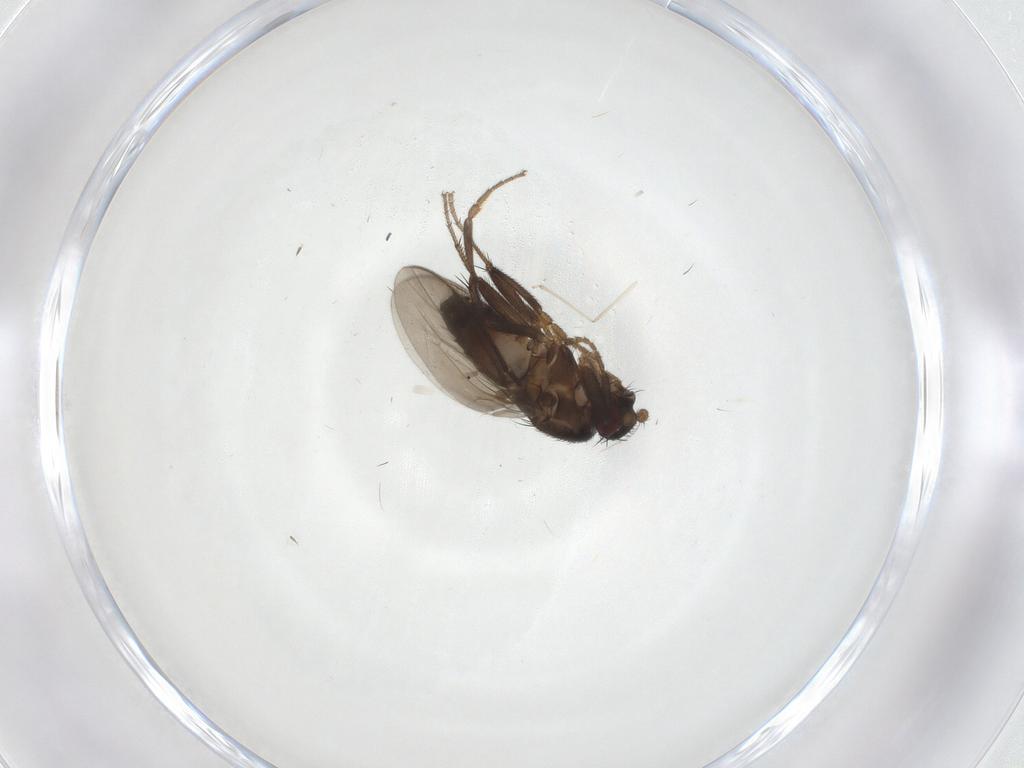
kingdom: Animalia
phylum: Arthropoda
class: Insecta
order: Diptera
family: Sphaeroceridae
